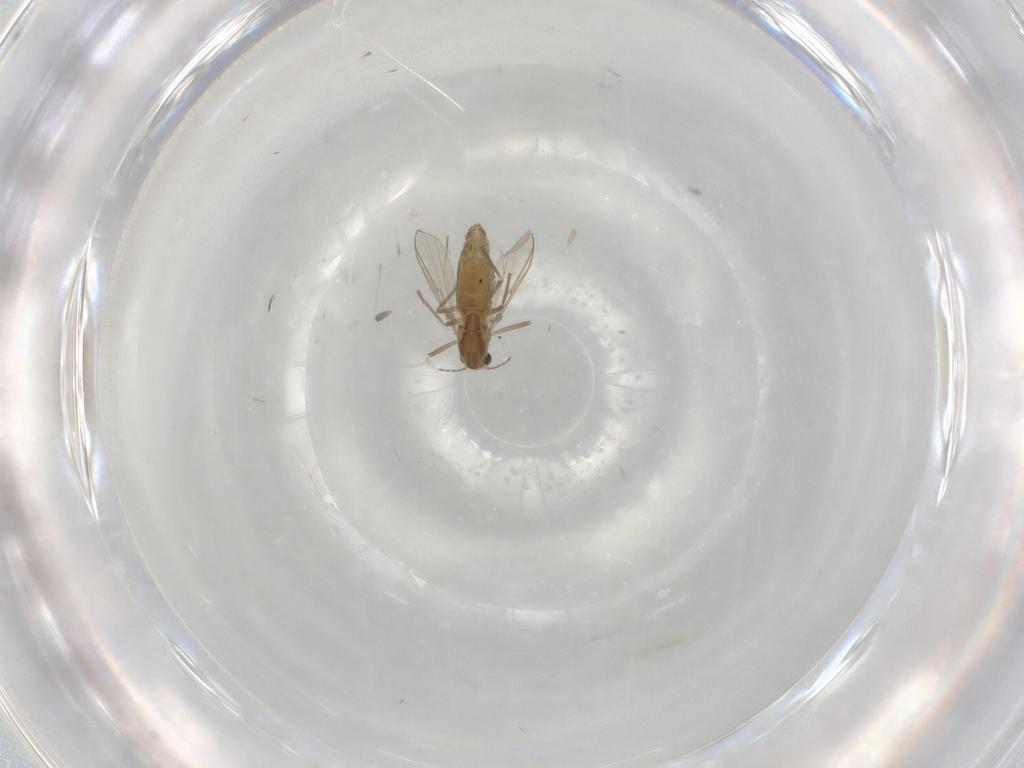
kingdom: Animalia
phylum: Arthropoda
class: Insecta
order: Diptera
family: Chironomidae
